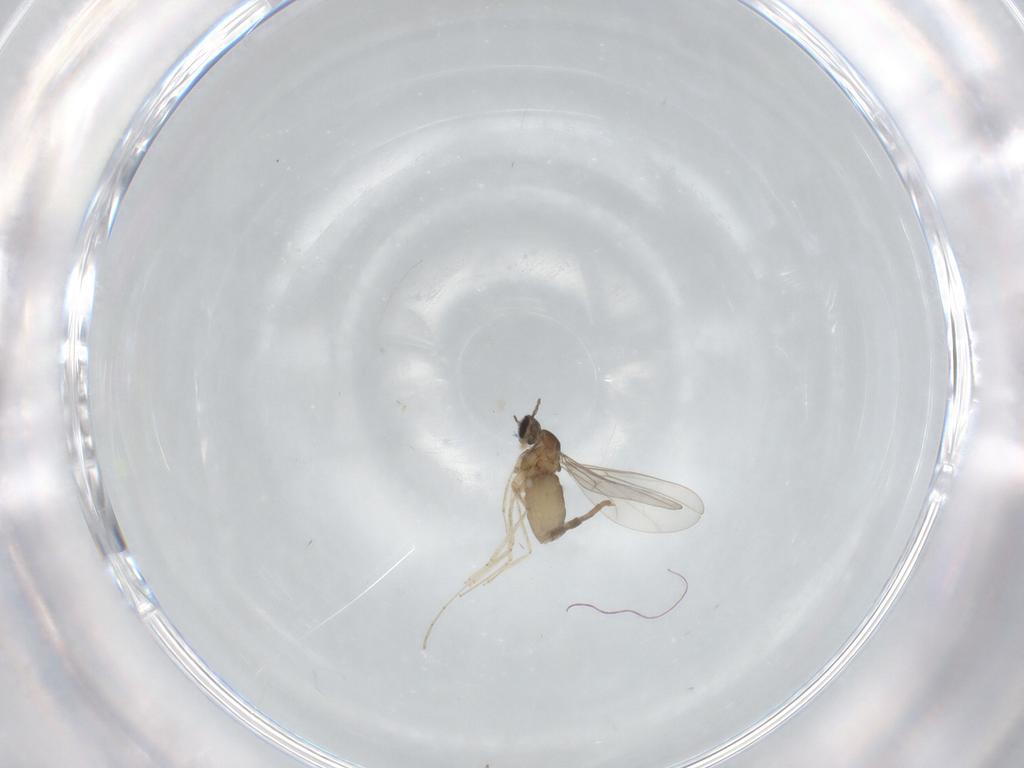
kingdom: Animalia
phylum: Arthropoda
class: Insecta
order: Diptera
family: Cecidomyiidae
